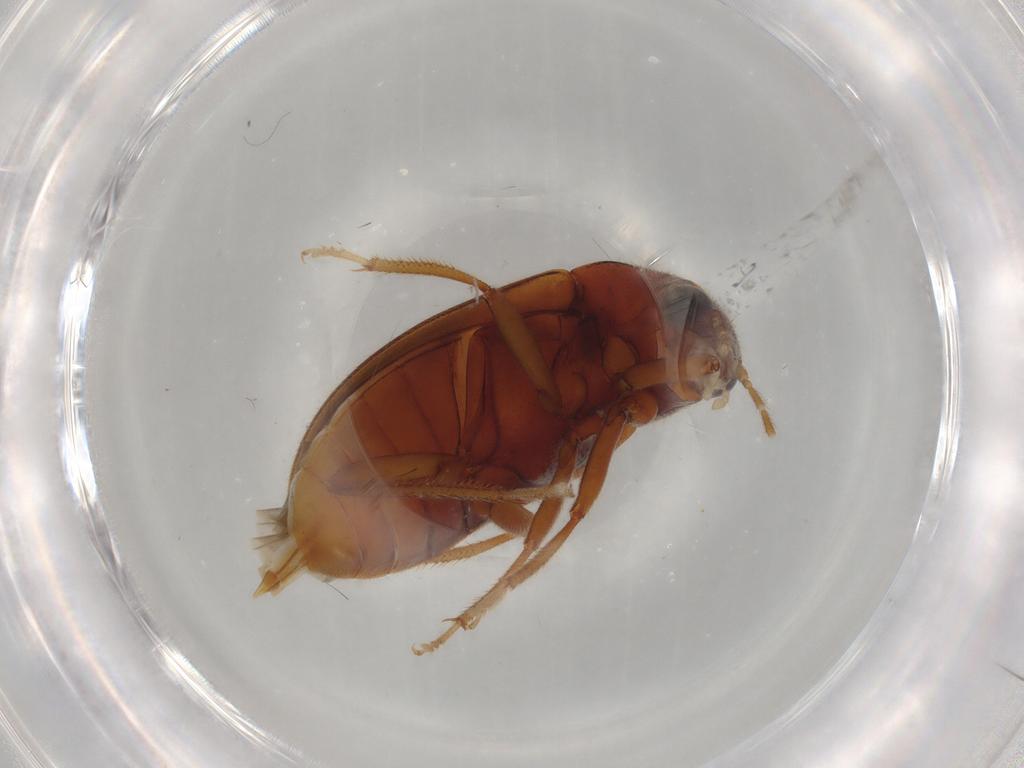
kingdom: Animalia
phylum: Arthropoda
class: Insecta
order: Coleoptera
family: Ptilodactylidae
